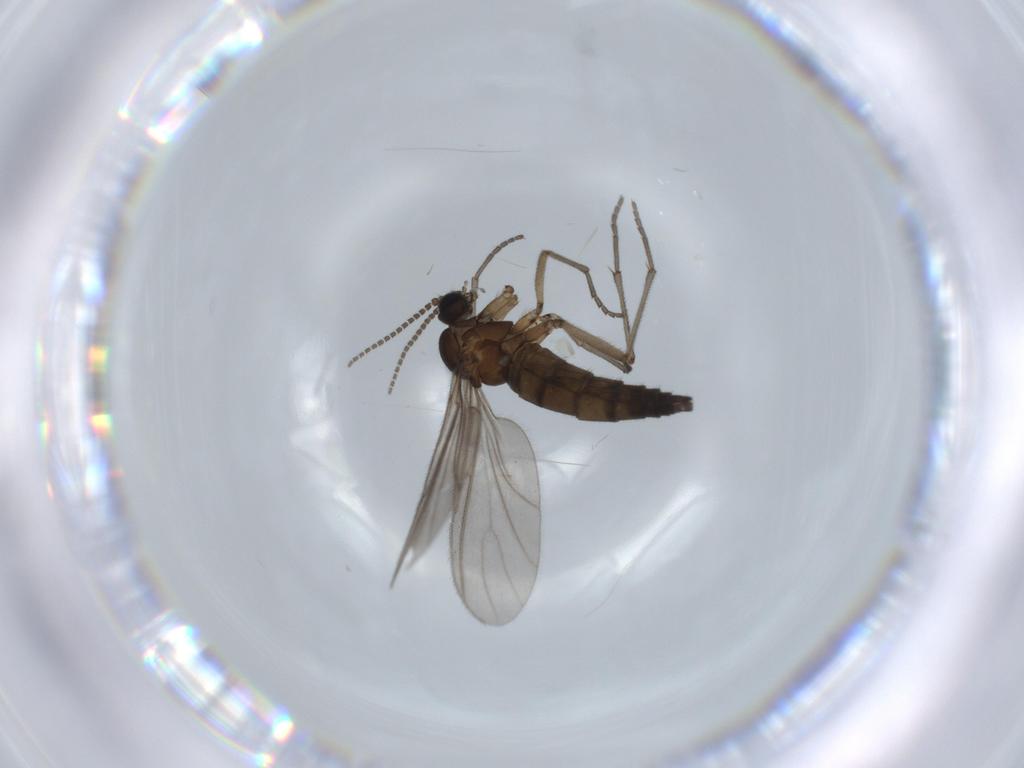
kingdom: Animalia
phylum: Arthropoda
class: Insecta
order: Diptera
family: Sciaridae
